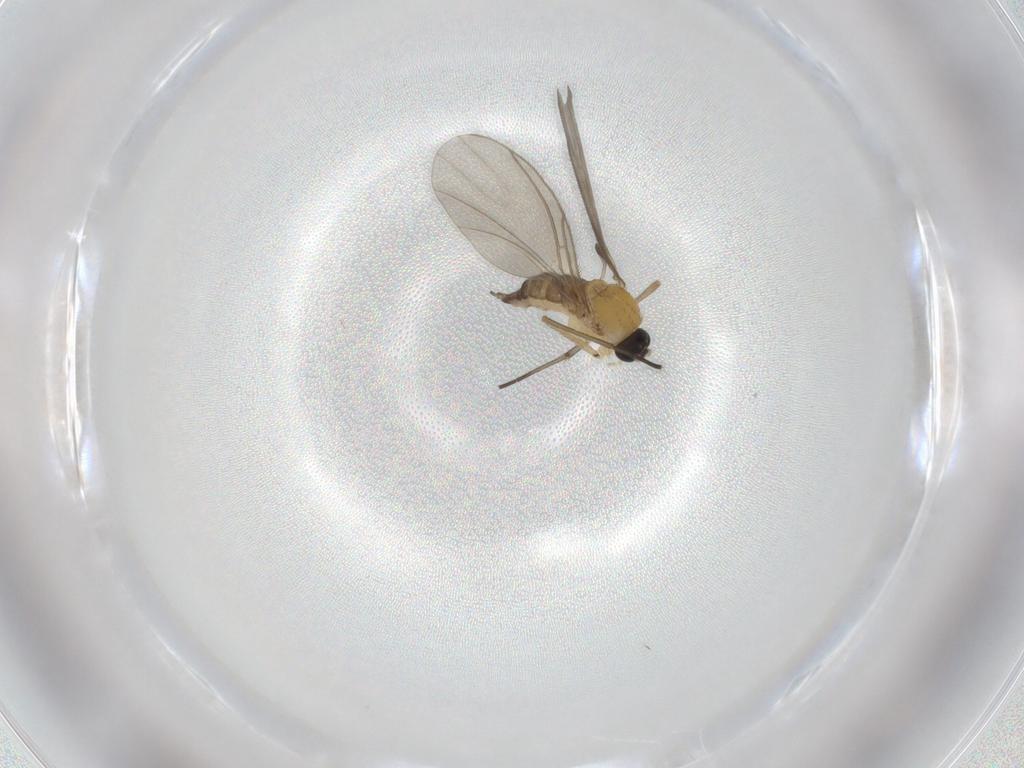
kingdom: Animalia
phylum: Arthropoda
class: Insecta
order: Diptera
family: Sciaridae
